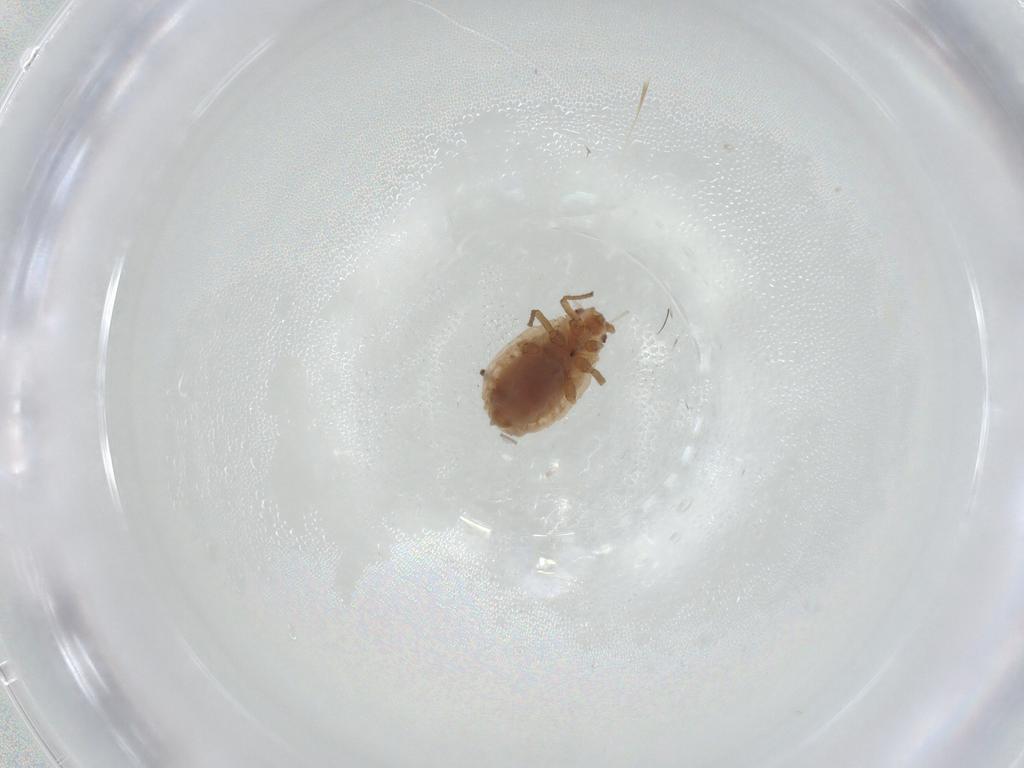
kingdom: Animalia
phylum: Arthropoda
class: Insecta
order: Hemiptera
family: Aphididae
